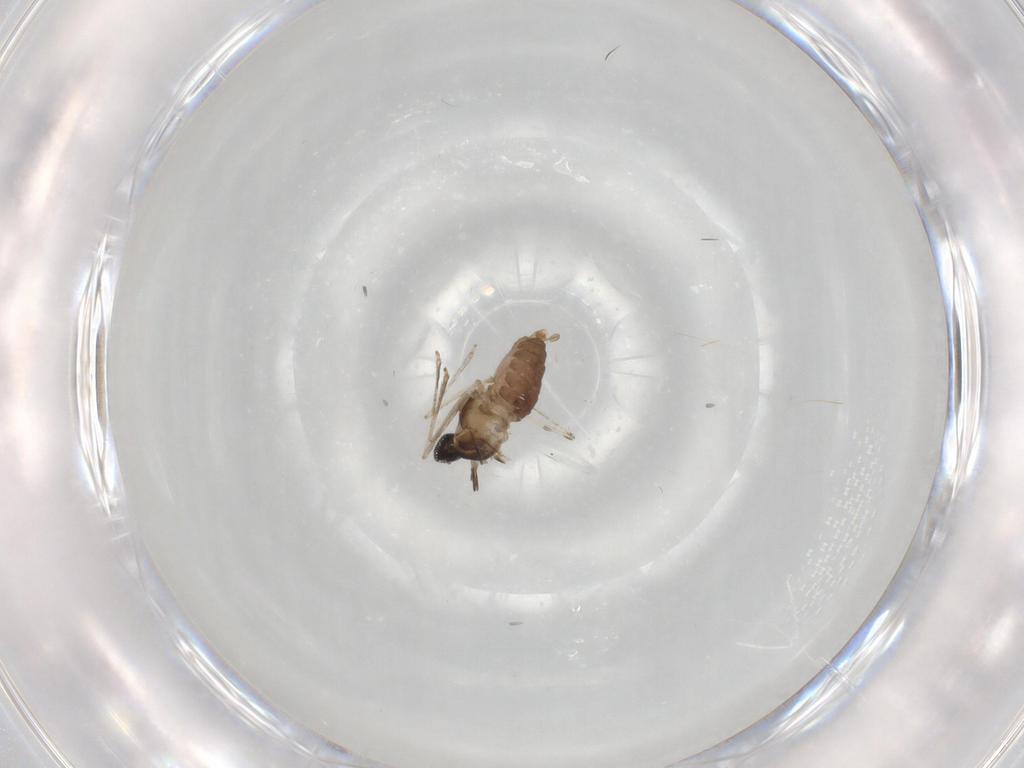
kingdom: Animalia
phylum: Arthropoda
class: Insecta
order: Diptera
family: Cecidomyiidae
